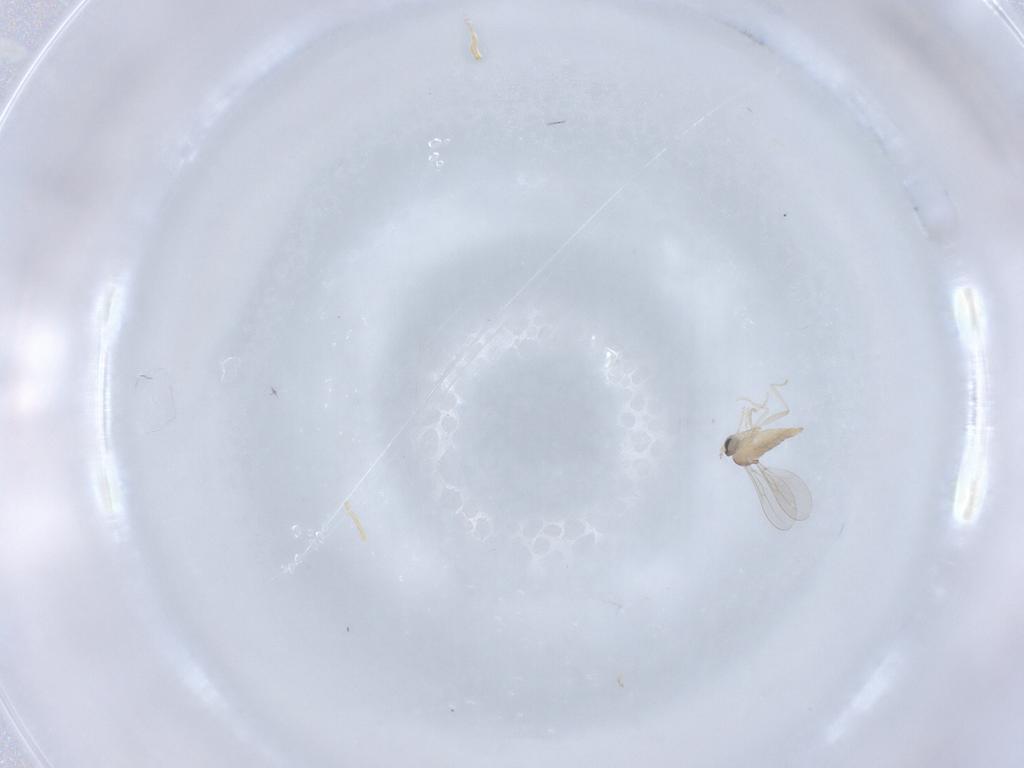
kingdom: Animalia
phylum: Arthropoda
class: Insecta
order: Diptera
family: Cecidomyiidae
